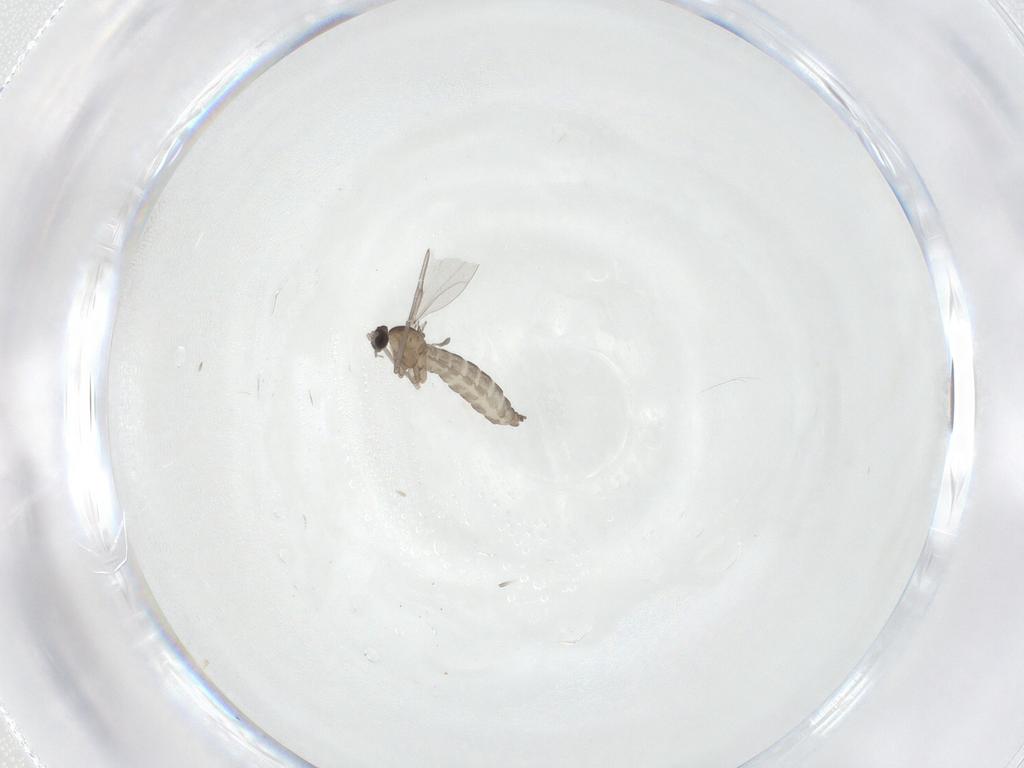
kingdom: Animalia
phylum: Arthropoda
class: Insecta
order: Diptera
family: Cecidomyiidae
